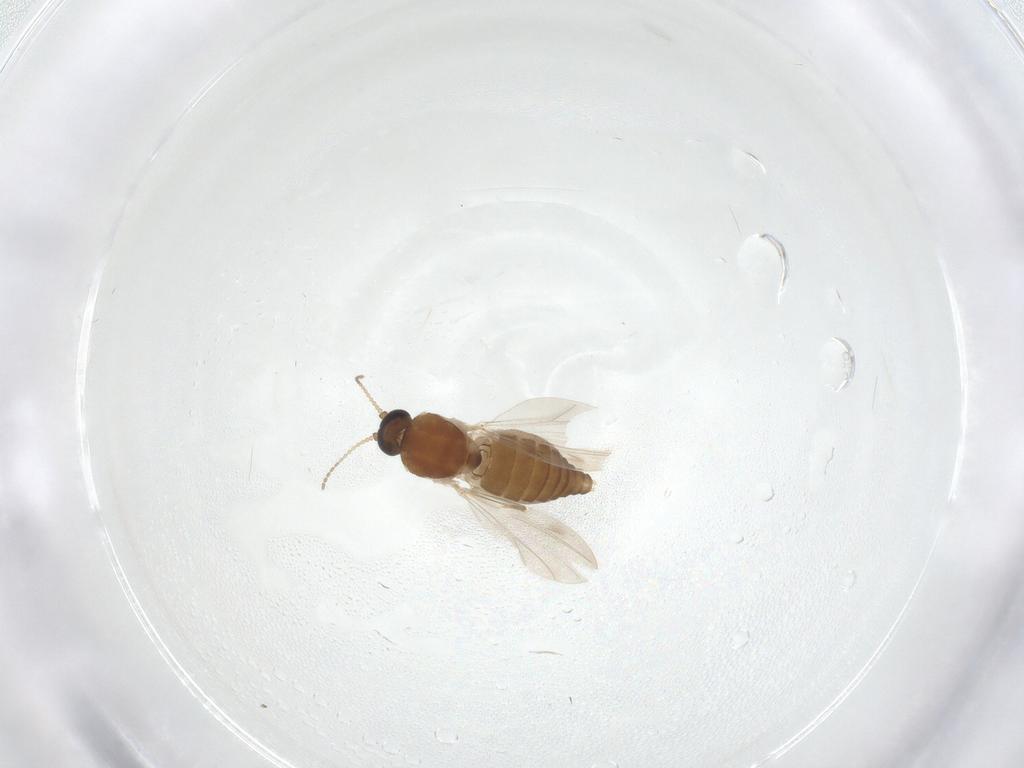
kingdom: Animalia
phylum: Arthropoda
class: Insecta
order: Diptera
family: Ceratopogonidae
